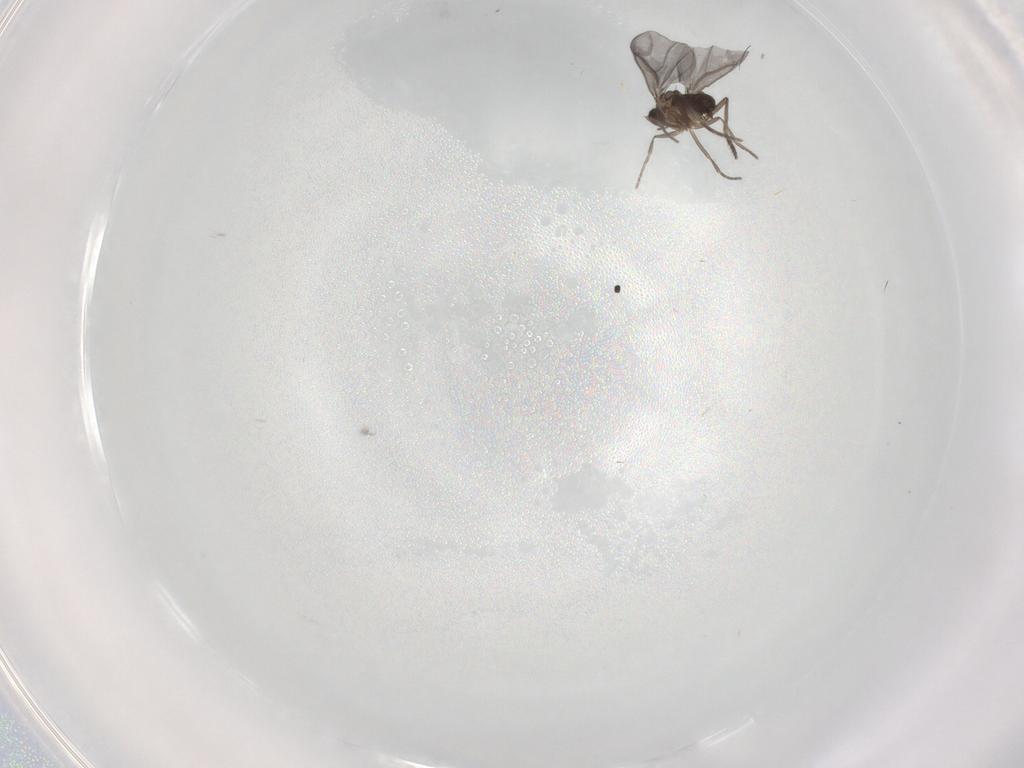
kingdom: Animalia
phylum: Arthropoda
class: Insecta
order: Diptera
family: Phoridae
